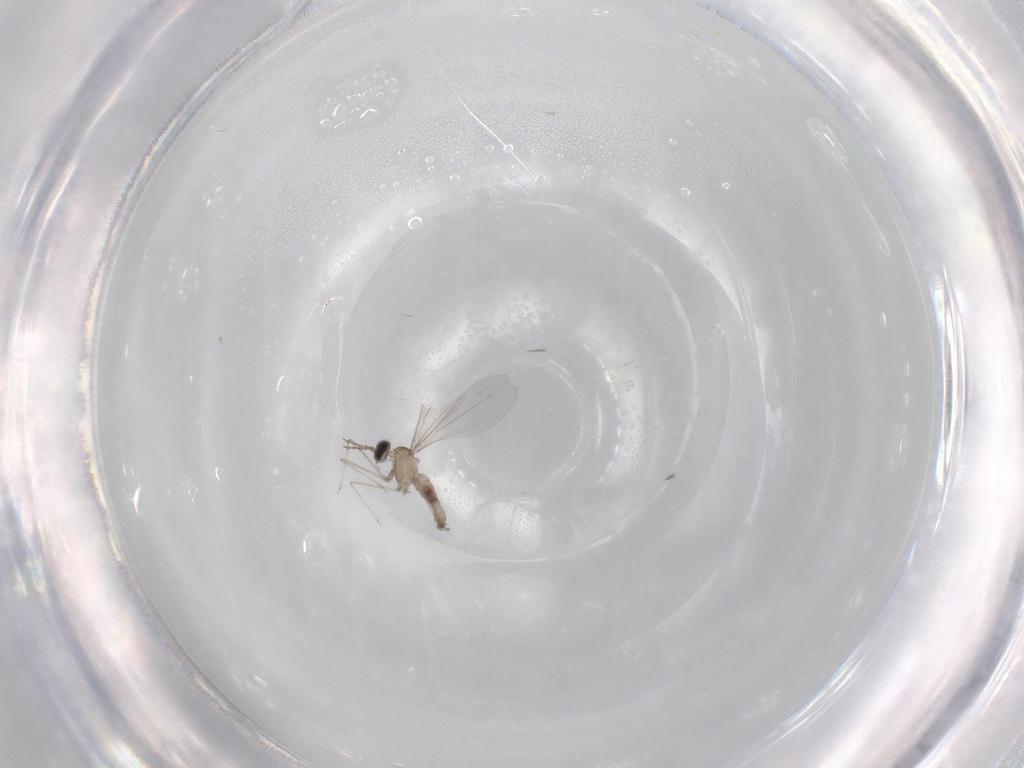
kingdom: Animalia
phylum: Arthropoda
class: Insecta
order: Diptera
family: Cecidomyiidae
